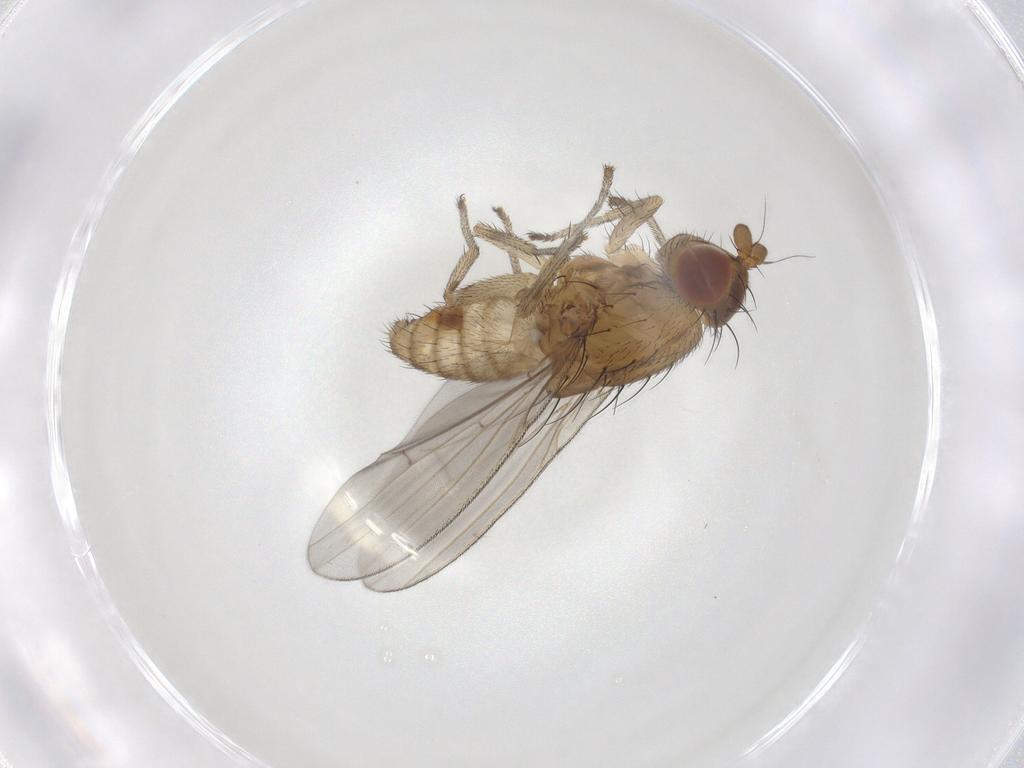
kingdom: Animalia
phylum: Arthropoda
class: Insecta
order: Diptera
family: Lauxaniidae
